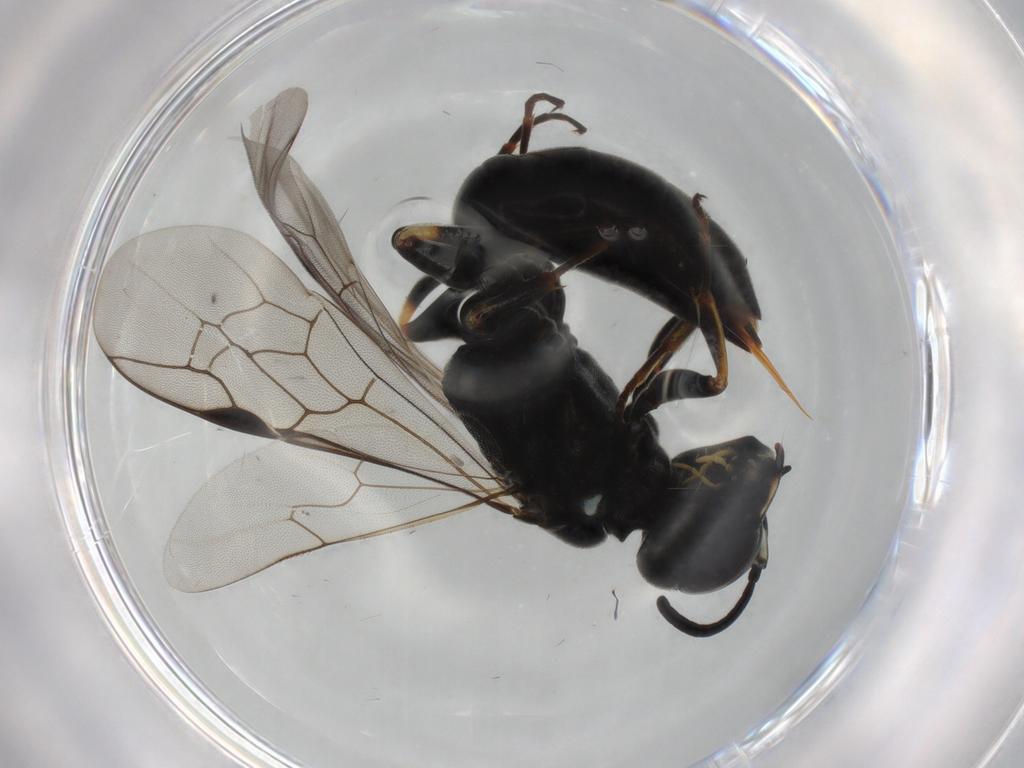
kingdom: Animalia
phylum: Arthropoda
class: Insecta
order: Hymenoptera
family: Crabronidae
